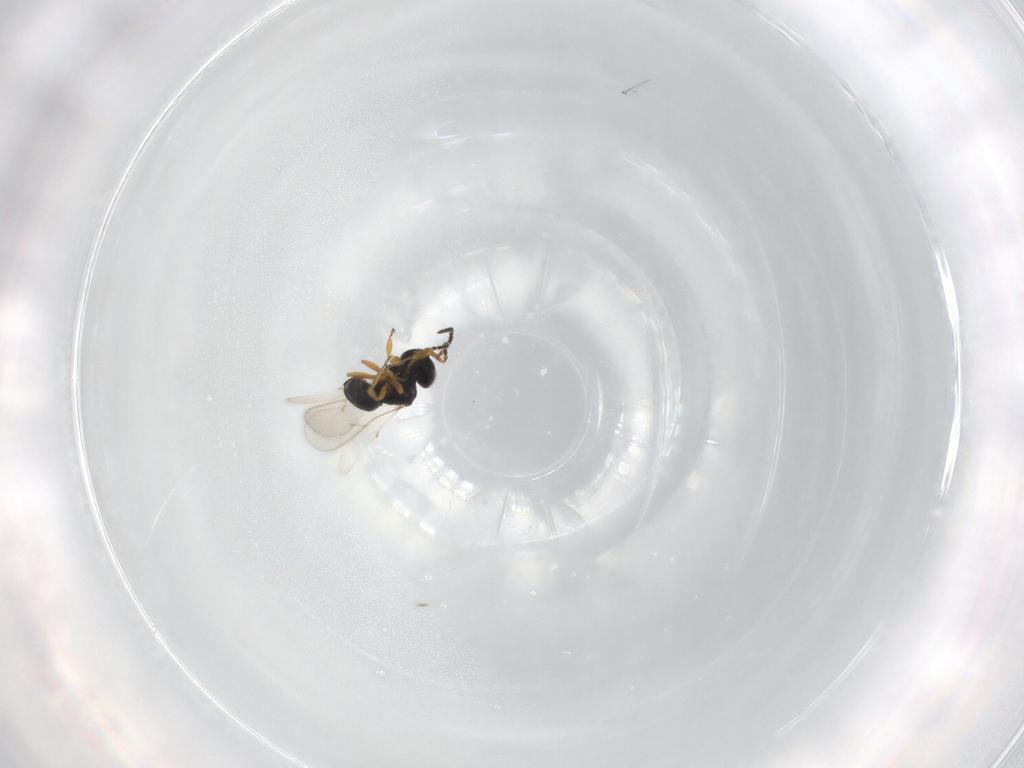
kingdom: Animalia
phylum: Arthropoda
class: Insecta
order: Hymenoptera
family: Scelionidae
